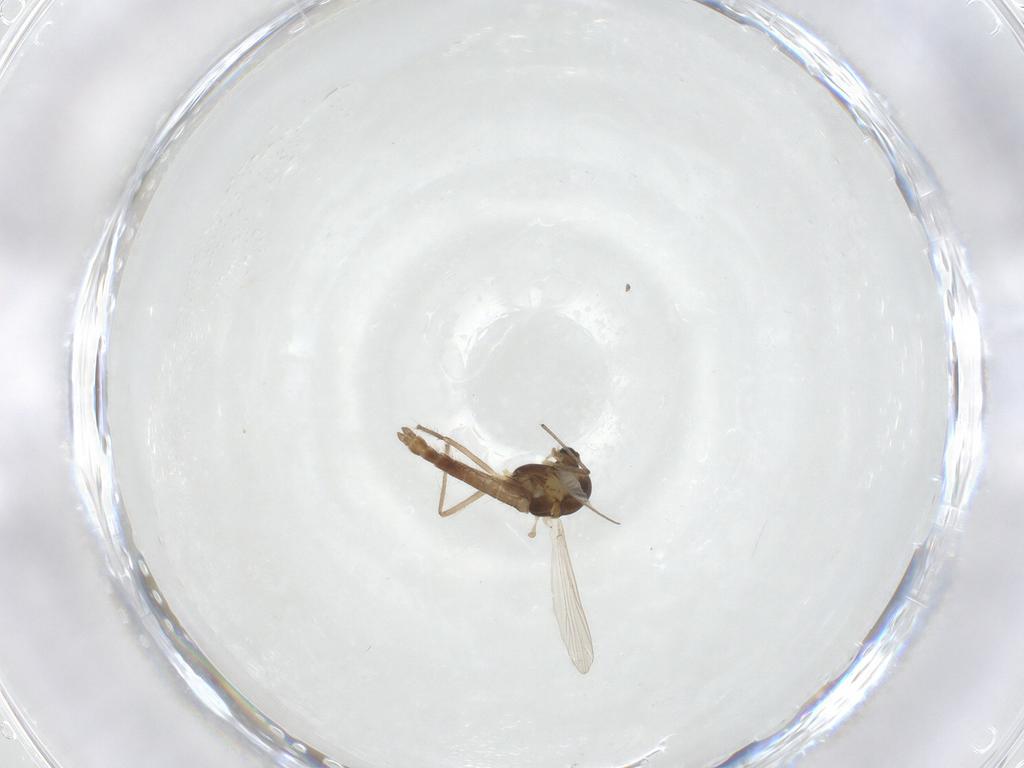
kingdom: Animalia
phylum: Arthropoda
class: Insecta
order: Diptera
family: Chironomidae
